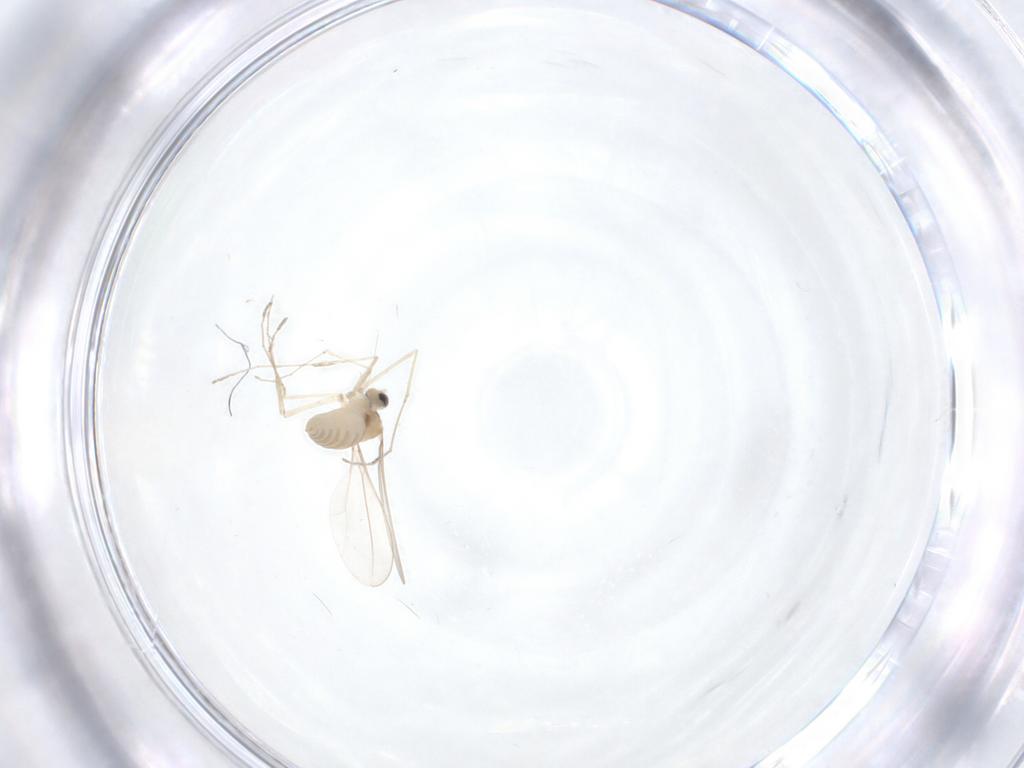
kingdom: Animalia
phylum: Arthropoda
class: Insecta
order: Diptera
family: Cecidomyiidae
